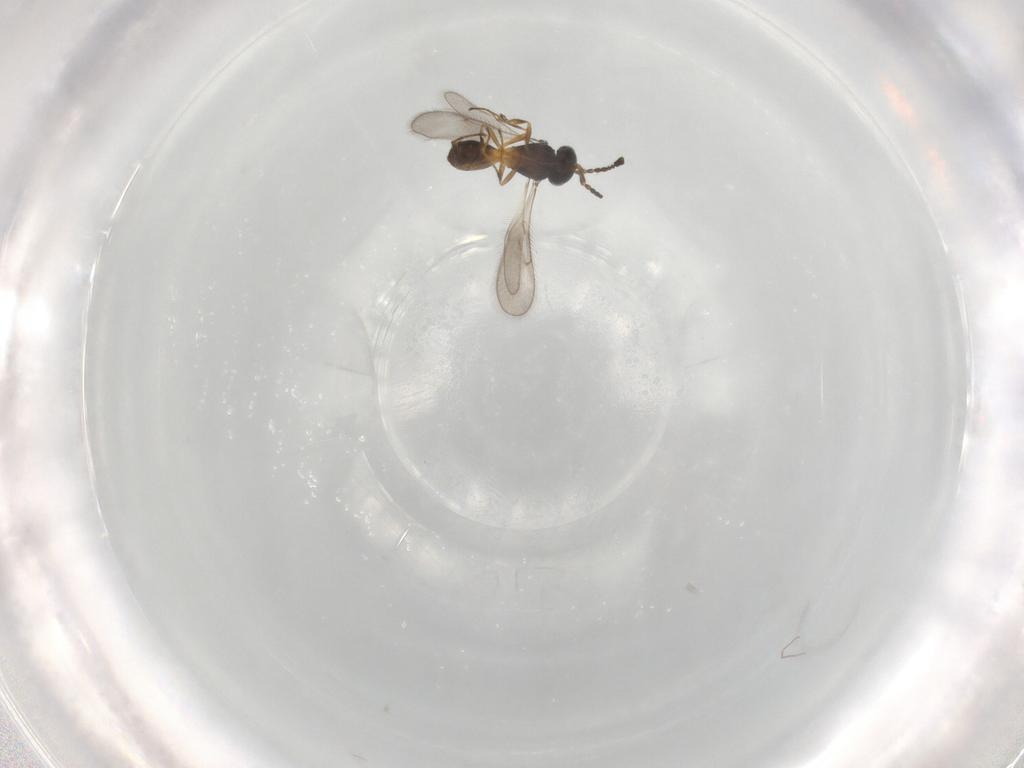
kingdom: Animalia
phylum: Arthropoda
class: Insecta
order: Hymenoptera
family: Scelionidae
